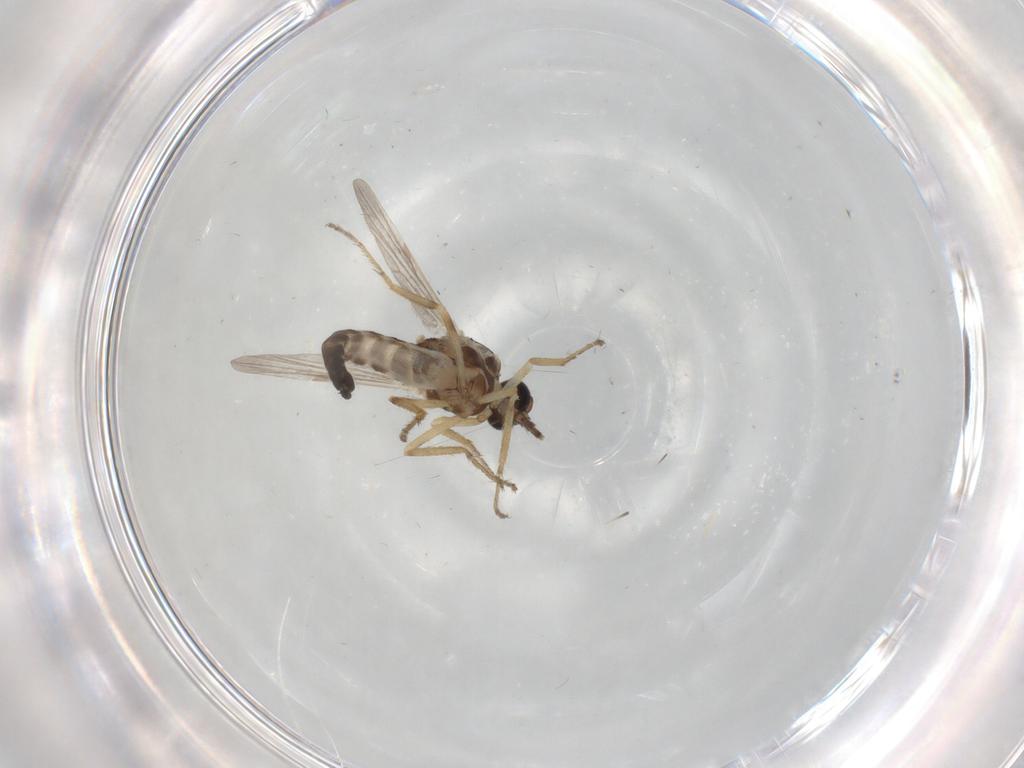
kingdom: Animalia
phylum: Arthropoda
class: Insecta
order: Diptera
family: Ceratopogonidae
